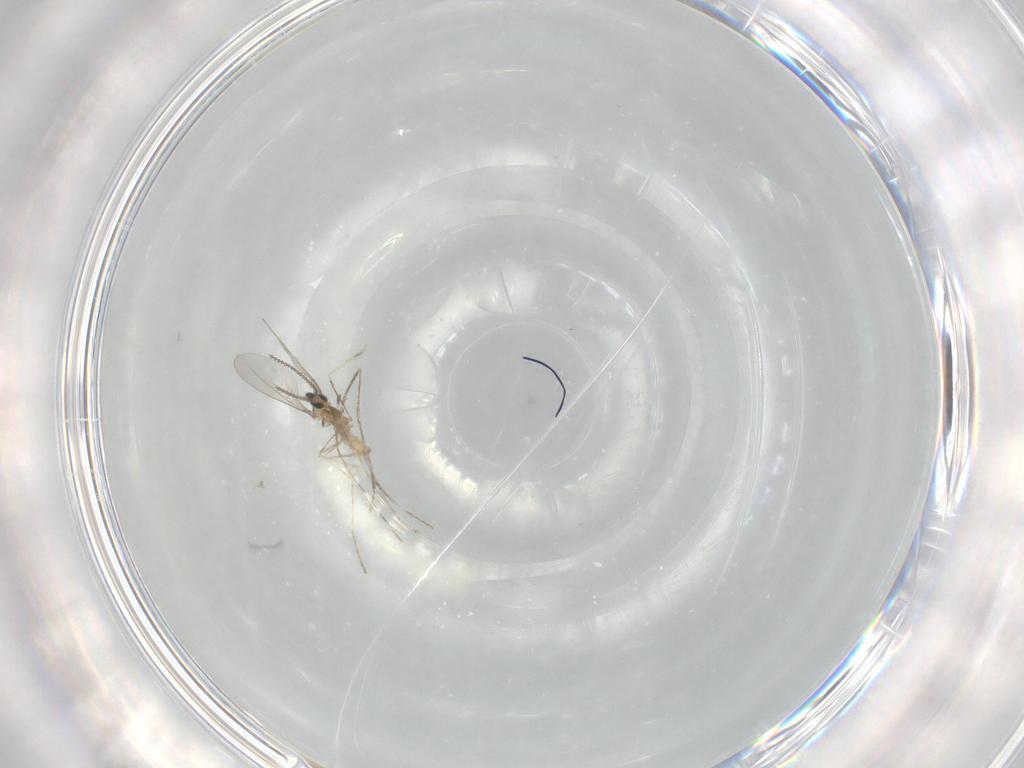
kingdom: Animalia
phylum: Arthropoda
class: Insecta
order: Diptera
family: Cecidomyiidae
